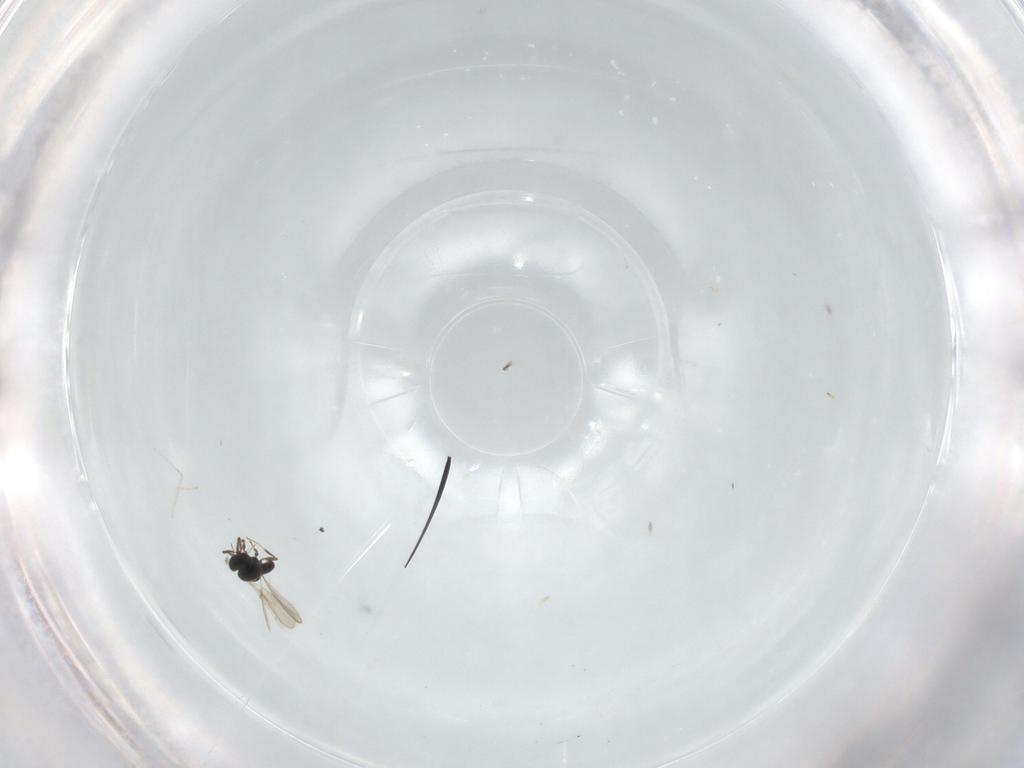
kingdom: Animalia
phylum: Arthropoda
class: Insecta
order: Hymenoptera
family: Scelionidae
